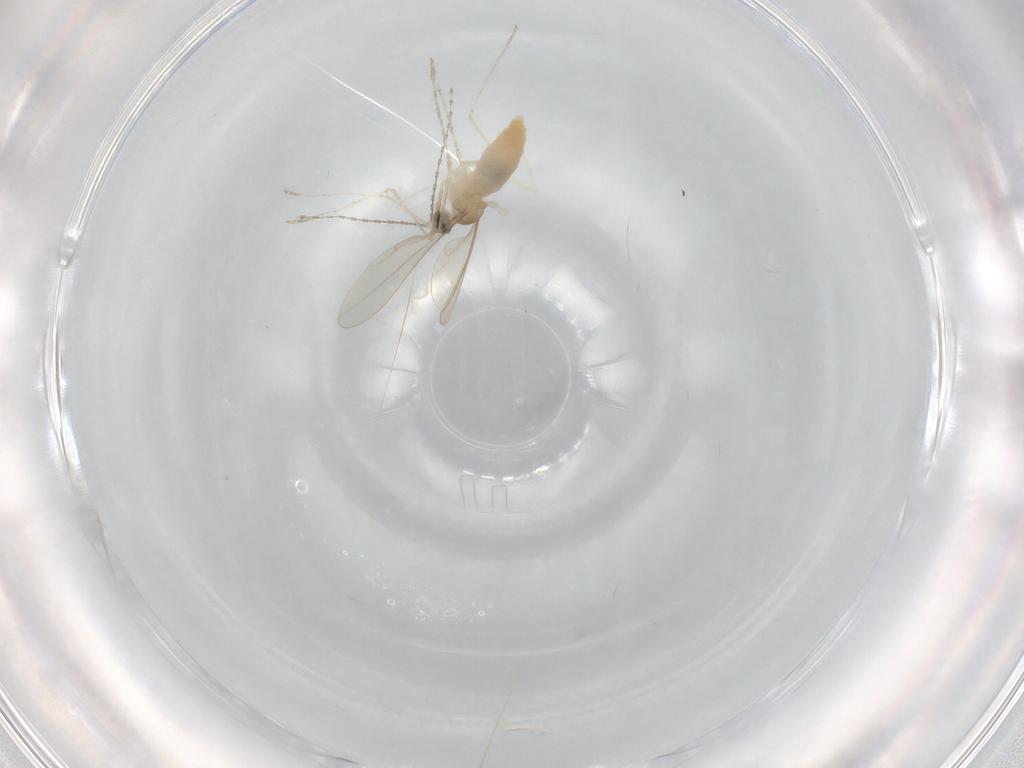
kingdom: Animalia
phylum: Arthropoda
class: Insecta
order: Diptera
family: Cecidomyiidae
